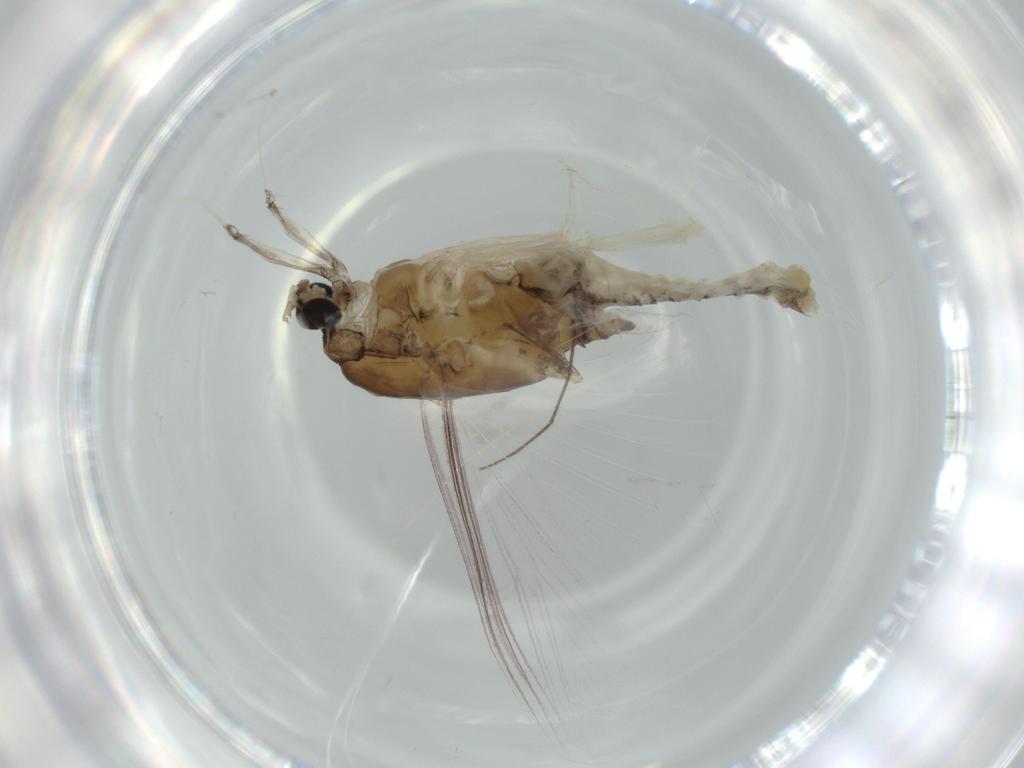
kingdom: Animalia
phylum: Arthropoda
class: Insecta
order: Ephemeroptera
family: Caenidae
